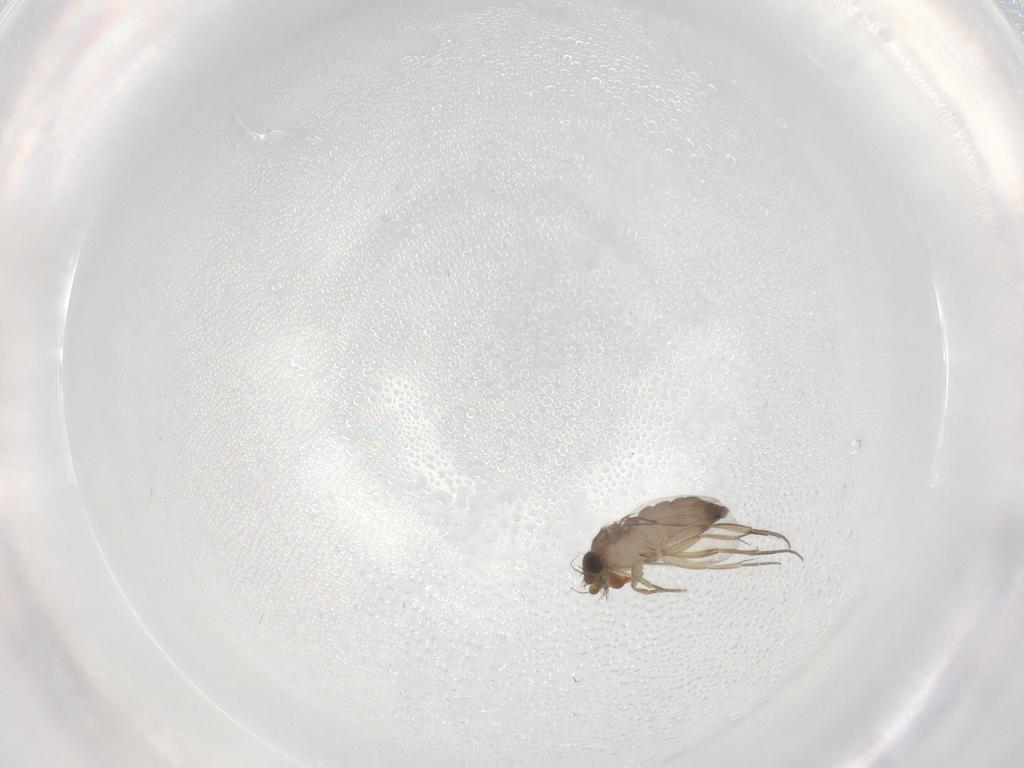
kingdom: Animalia
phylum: Arthropoda
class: Insecta
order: Diptera
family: Phoridae
